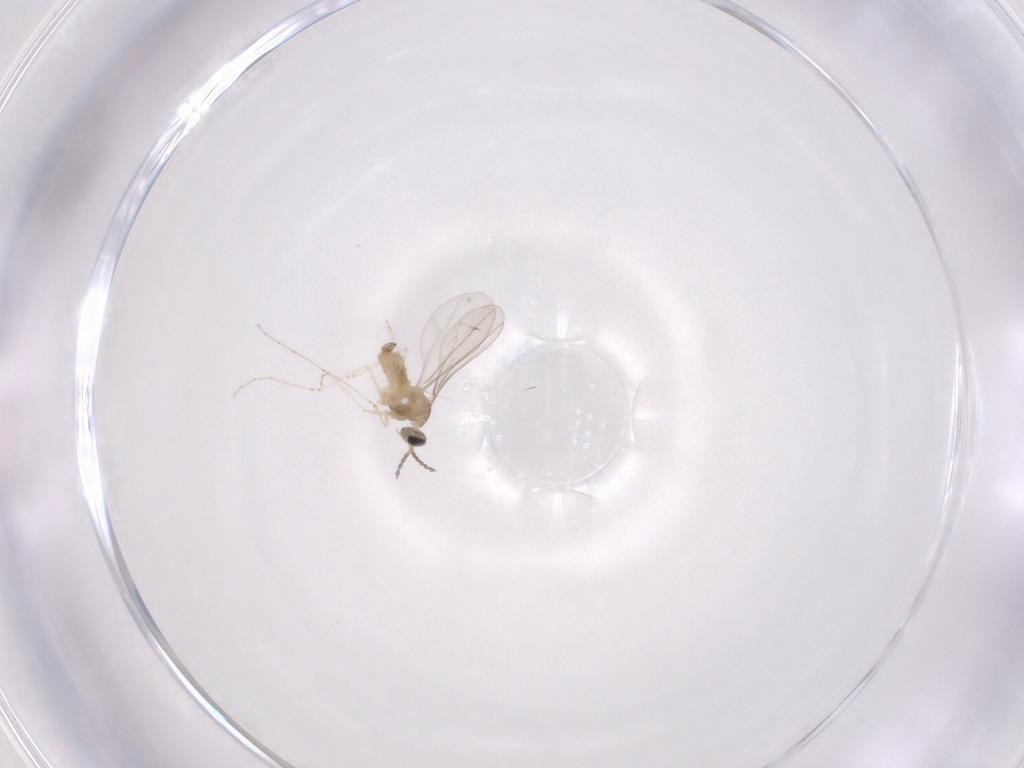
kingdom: Animalia
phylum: Arthropoda
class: Insecta
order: Diptera
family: Cecidomyiidae
